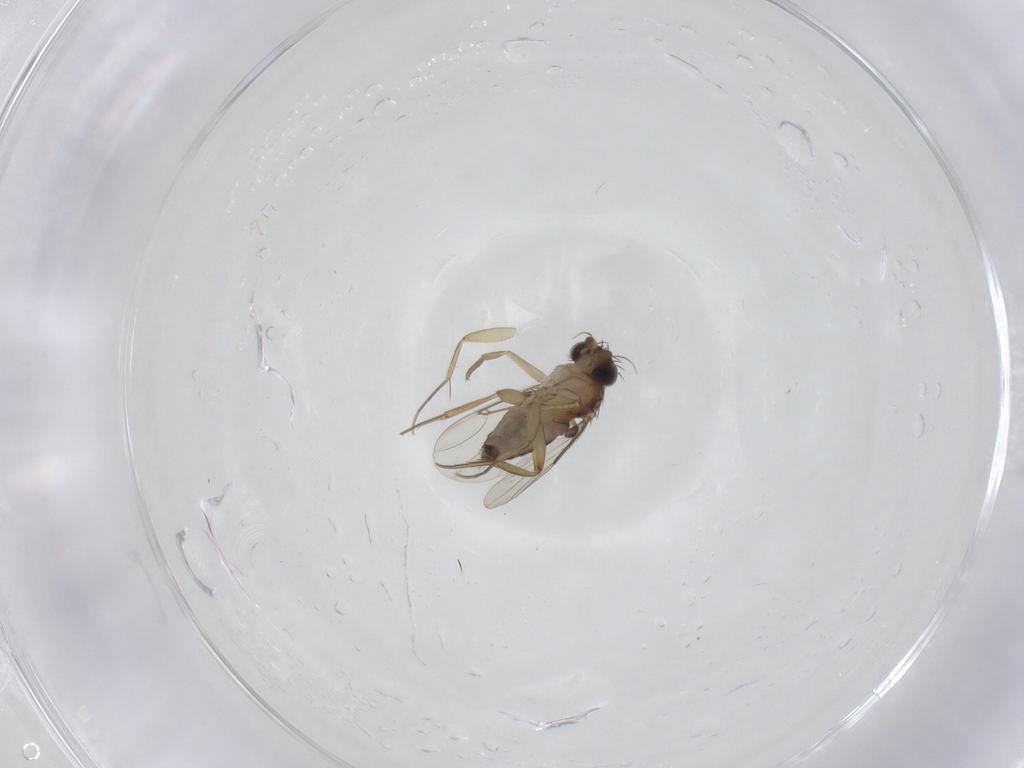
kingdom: Animalia
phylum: Arthropoda
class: Insecta
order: Diptera
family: Phoridae
